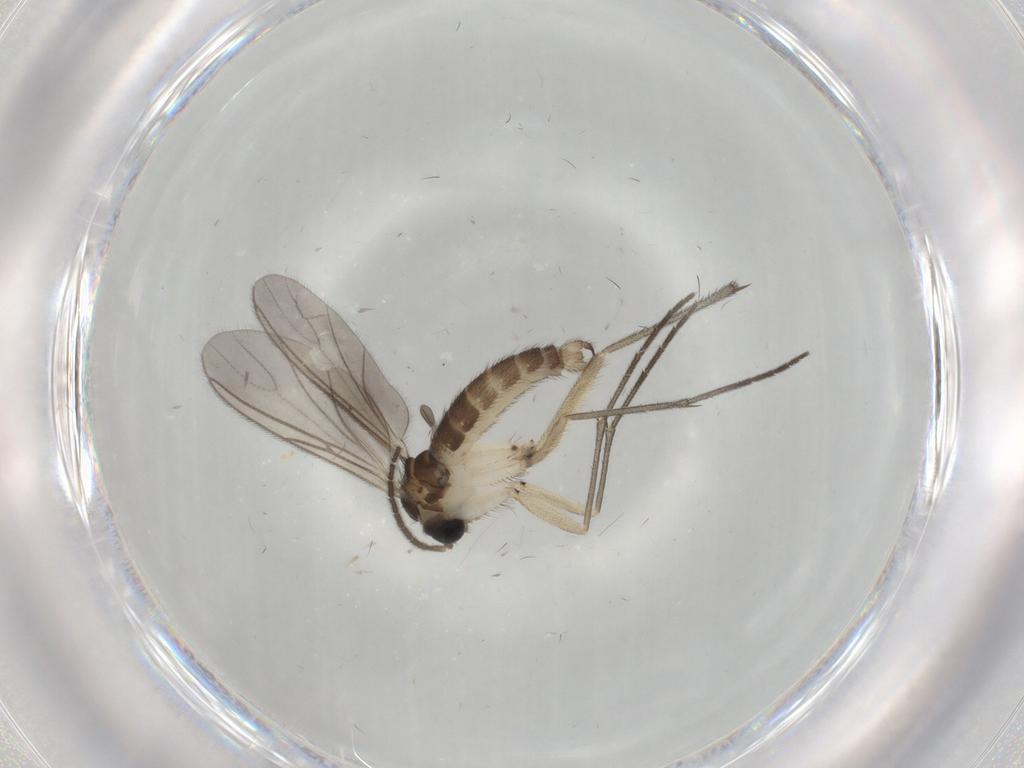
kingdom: Animalia
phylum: Arthropoda
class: Insecta
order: Diptera
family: Sciaridae
